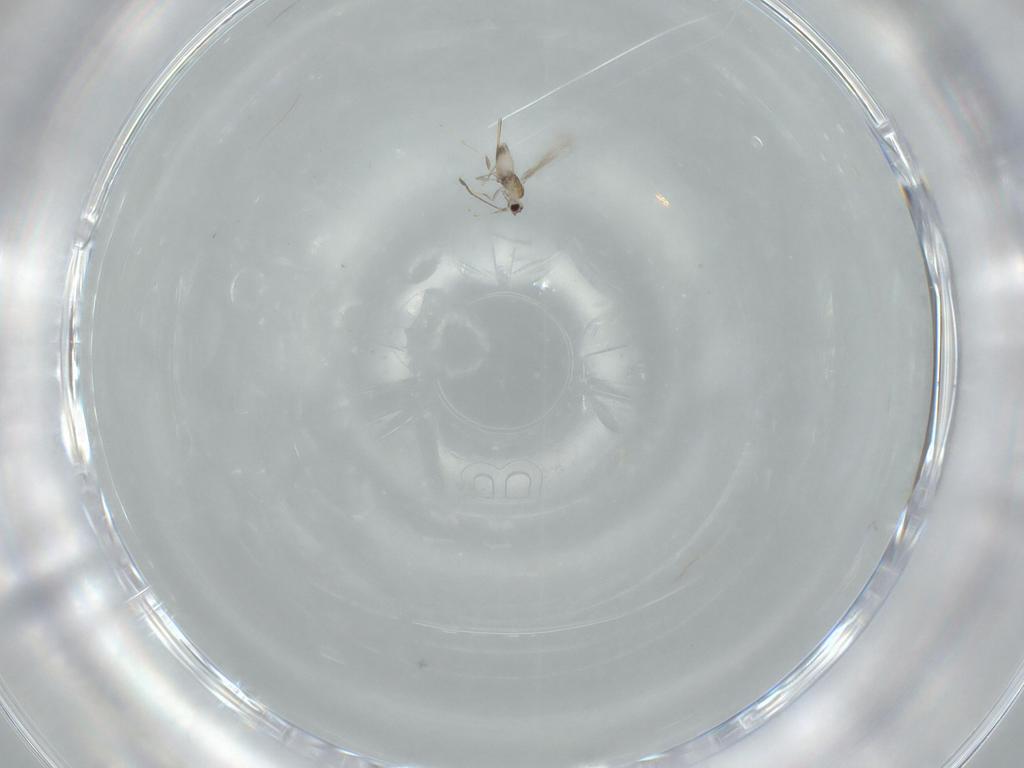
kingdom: Animalia
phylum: Arthropoda
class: Insecta
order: Hymenoptera
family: Mymaridae
